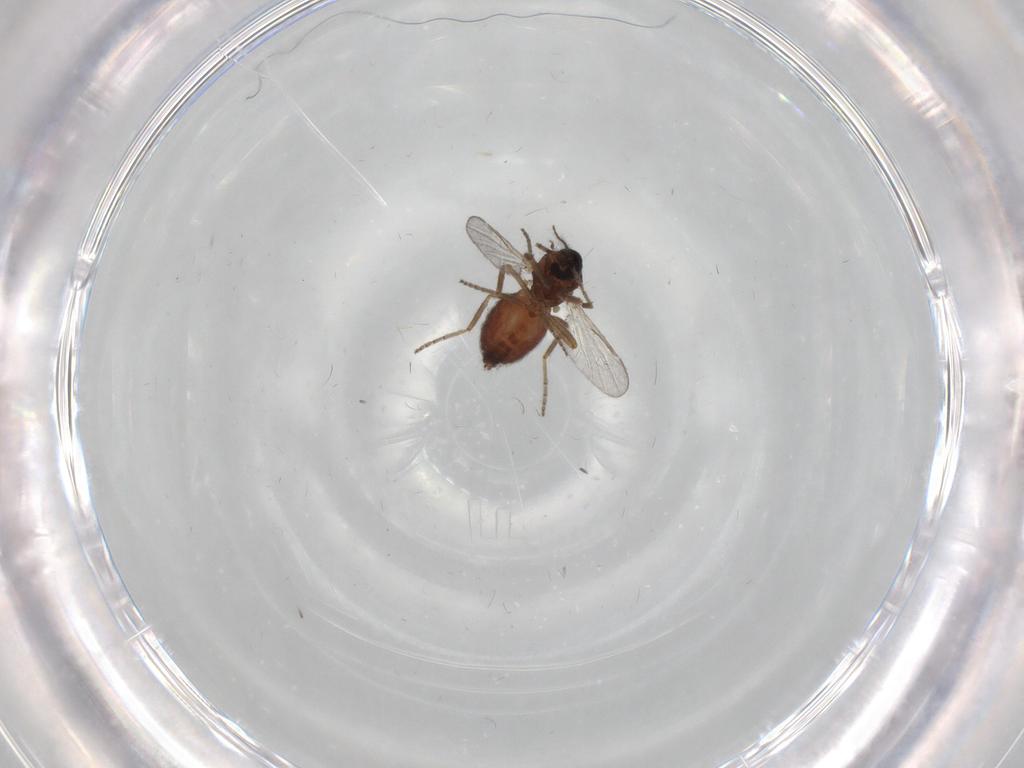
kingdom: Animalia
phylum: Arthropoda
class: Insecta
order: Diptera
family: Ceratopogonidae
